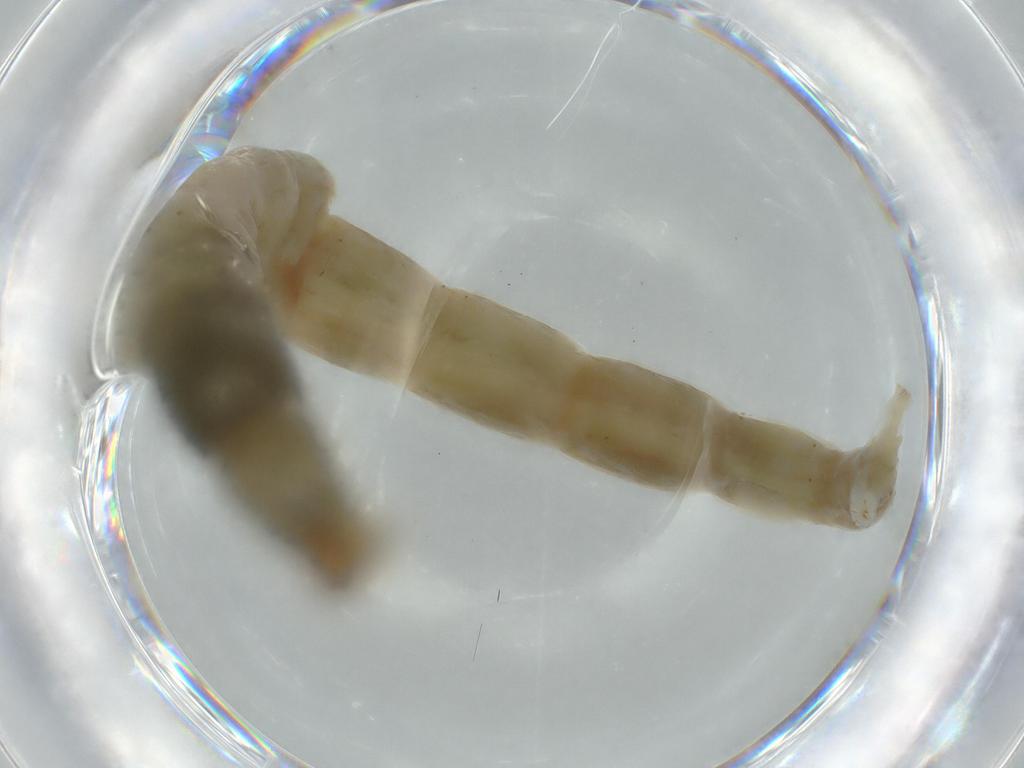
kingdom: Animalia
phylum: Arthropoda
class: Insecta
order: Diptera
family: Chironomidae
